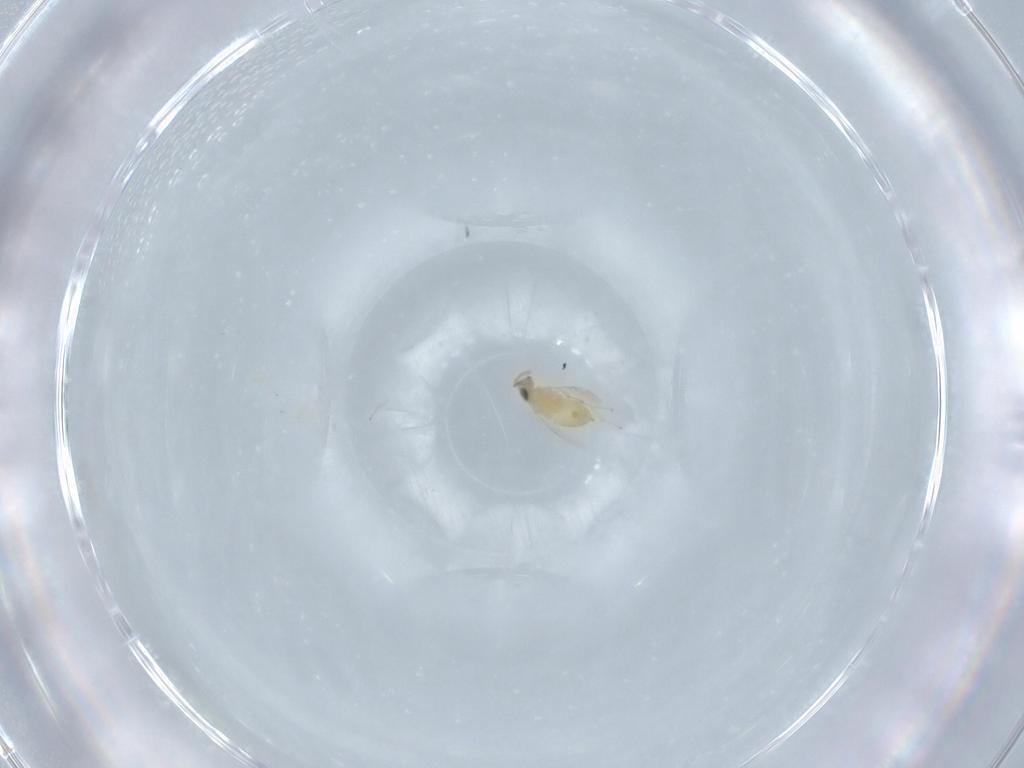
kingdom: Animalia
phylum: Arthropoda
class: Insecta
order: Hymenoptera
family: Encyrtidae
